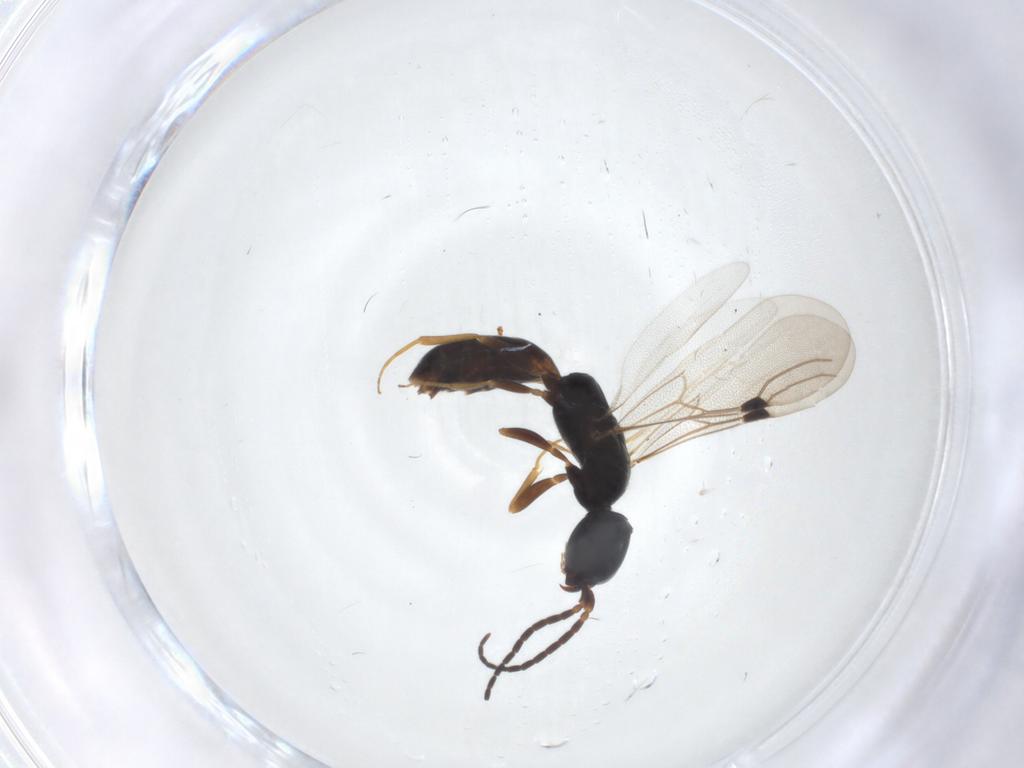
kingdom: Animalia
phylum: Arthropoda
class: Insecta
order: Hymenoptera
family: Bethylidae
